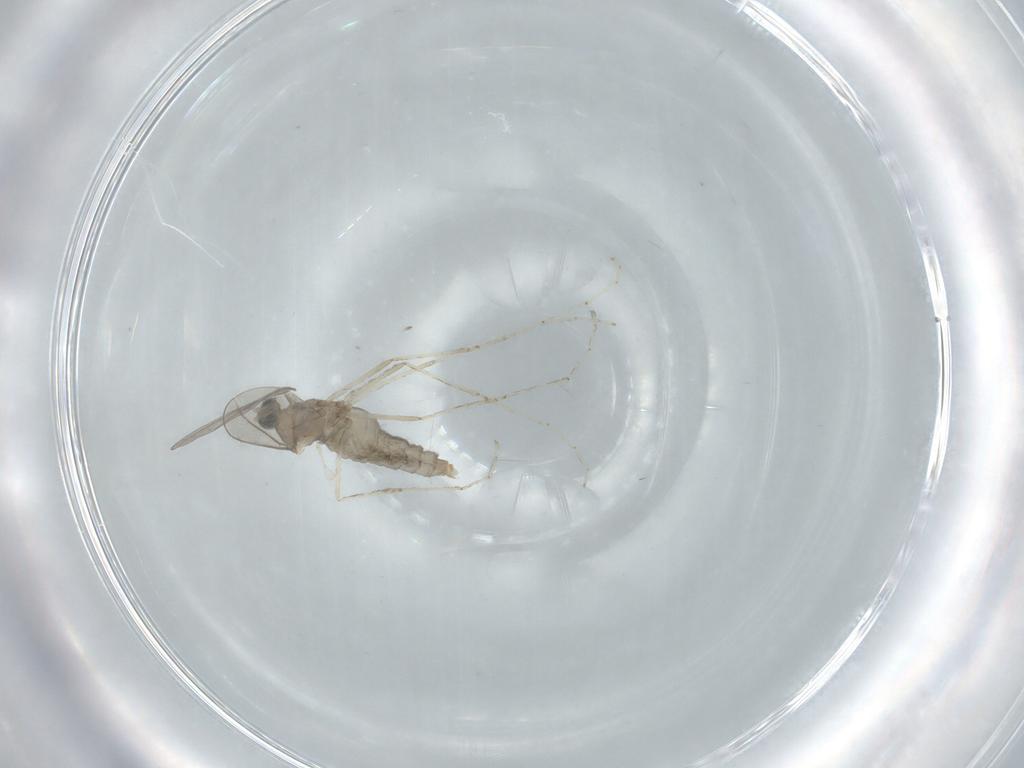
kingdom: Animalia
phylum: Arthropoda
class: Insecta
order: Diptera
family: Cecidomyiidae
